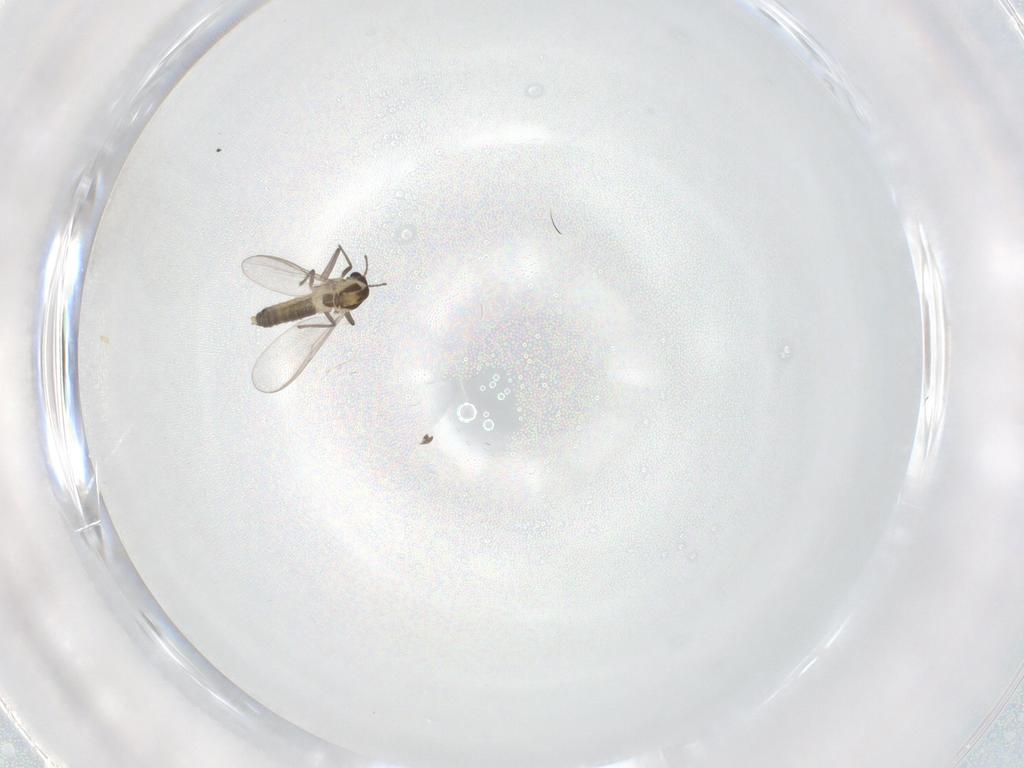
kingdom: Animalia
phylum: Arthropoda
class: Insecta
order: Diptera
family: Chironomidae
